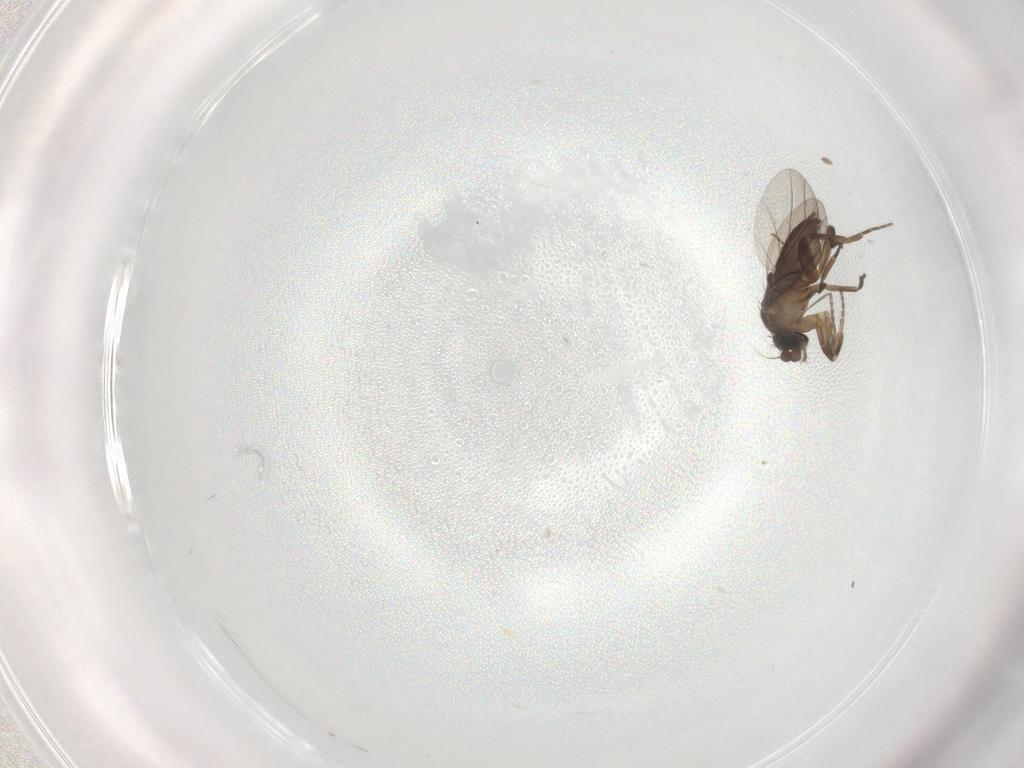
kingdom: Animalia
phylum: Arthropoda
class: Insecta
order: Diptera
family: Phoridae
